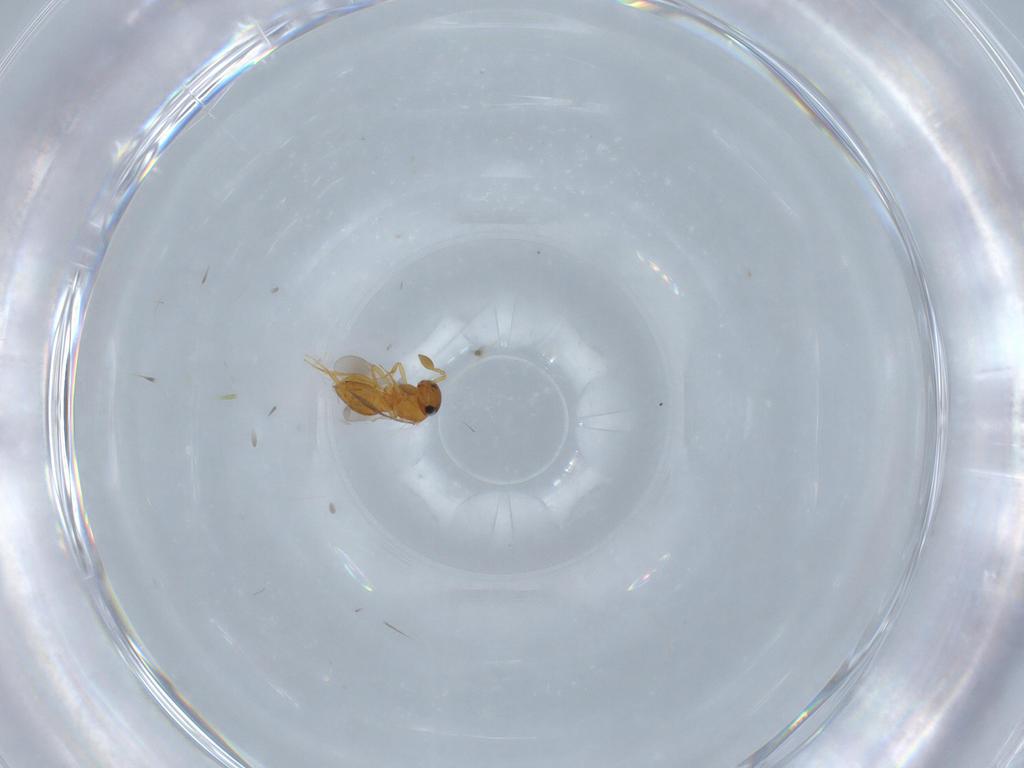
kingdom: Animalia
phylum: Arthropoda
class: Insecta
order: Hymenoptera
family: Scelionidae
